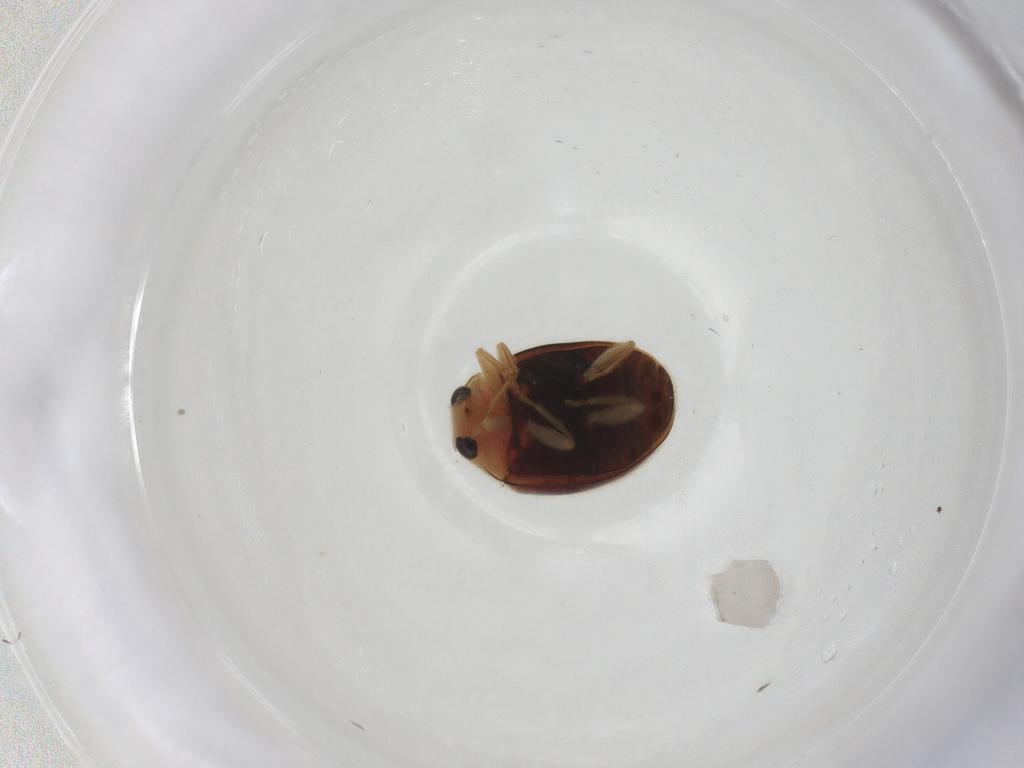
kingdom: Animalia
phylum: Arthropoda
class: Insecta
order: Coleoptera
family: Coccinellidae
